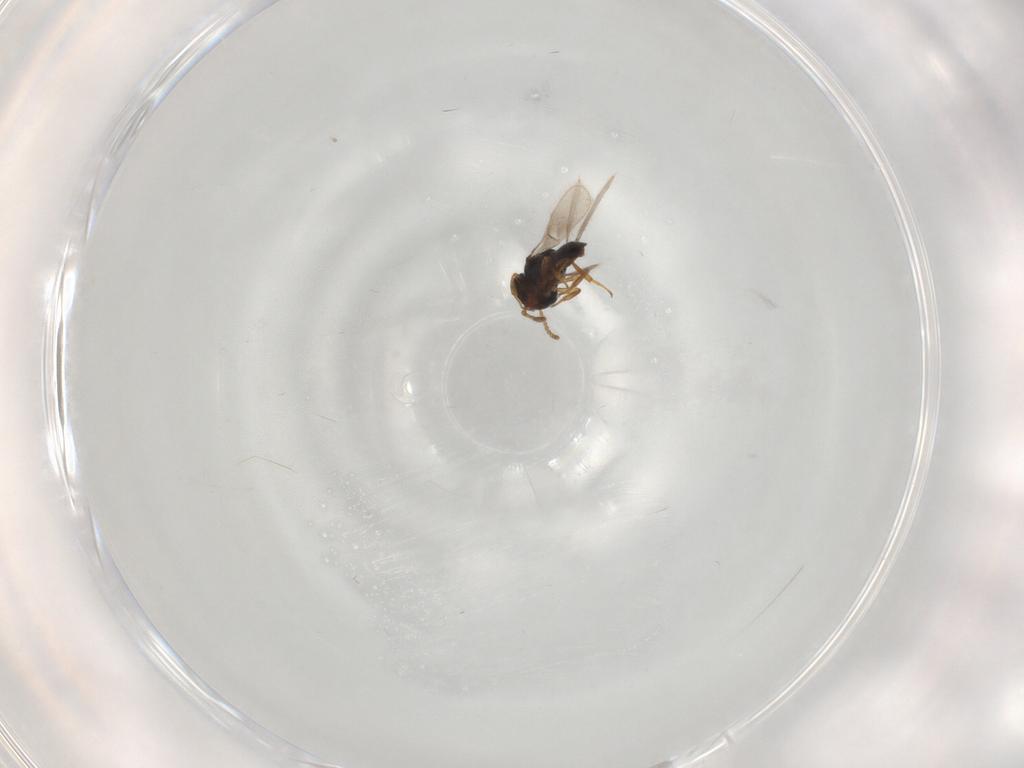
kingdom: Animalia
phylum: Arthropoda
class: Insecta
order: Hymenoptera
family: Scelionidae
